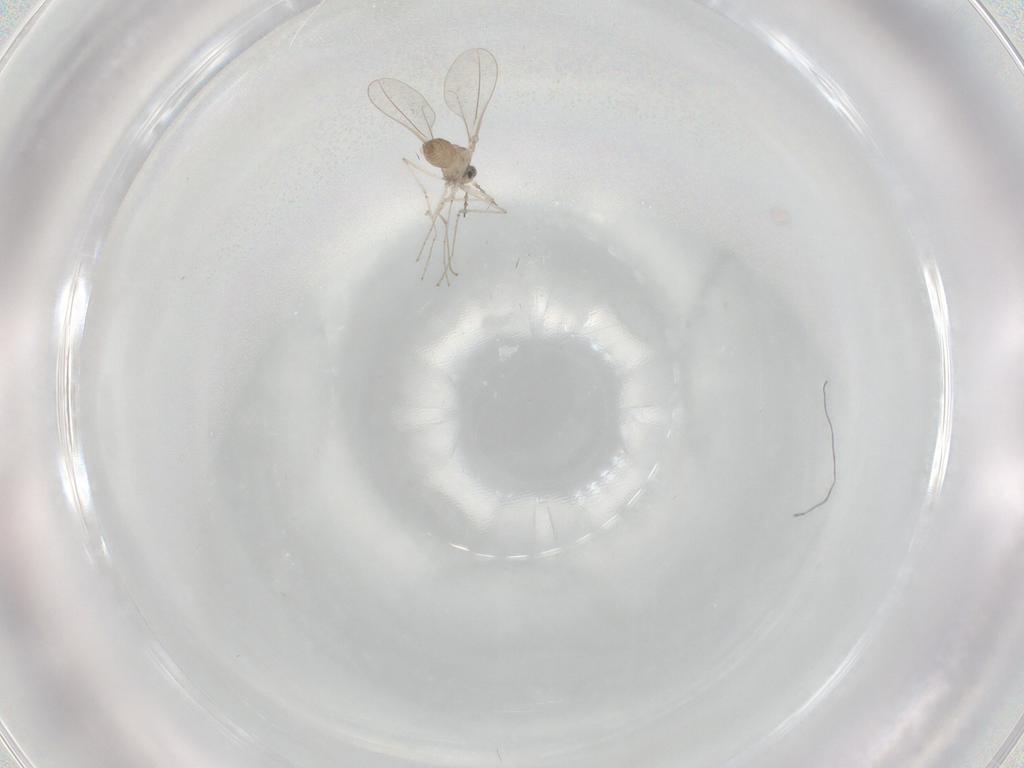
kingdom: Animalia
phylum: Arthropoda
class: Insecta
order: Diptera
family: Cecidomyiidae
